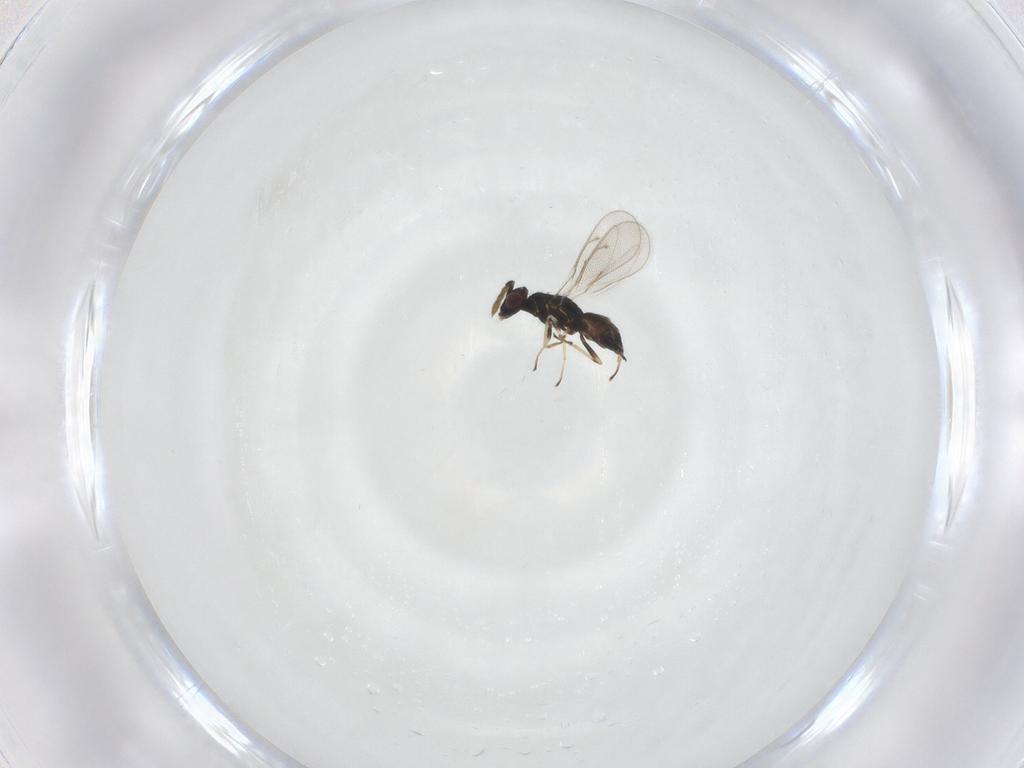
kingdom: Animalia
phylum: Arthropoda
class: Insecta
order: Hymenoptera
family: Eulophidae
